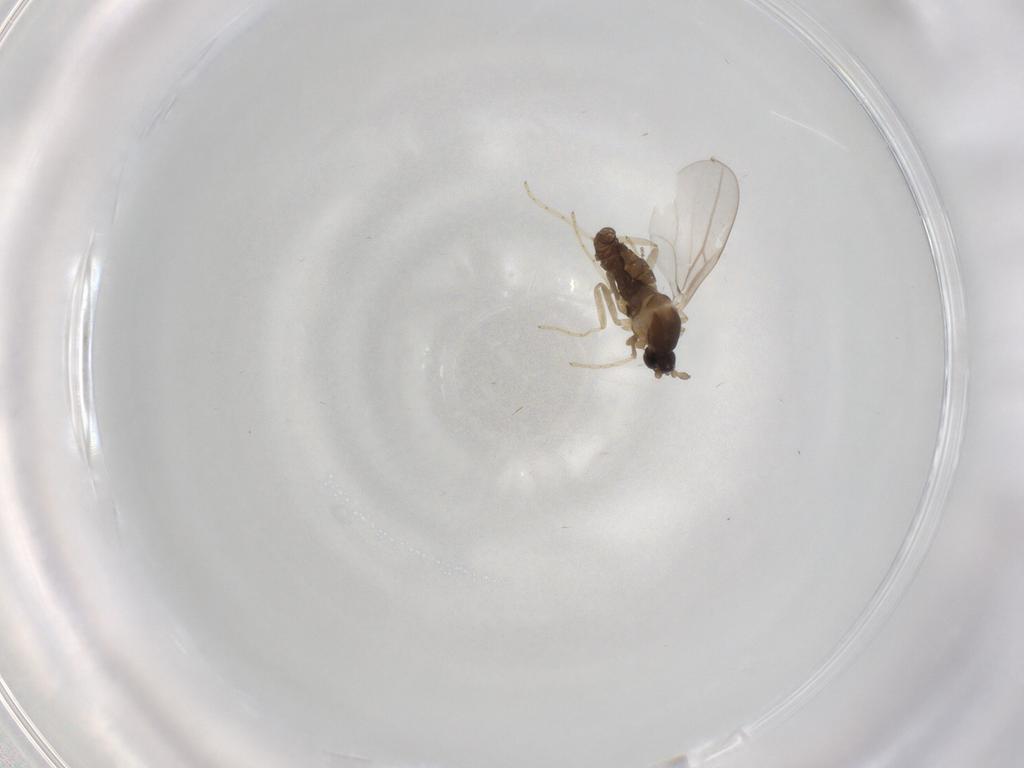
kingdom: Animalia
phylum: Arthropoda
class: Insecta
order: Diptera
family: Cecidomyiidae
